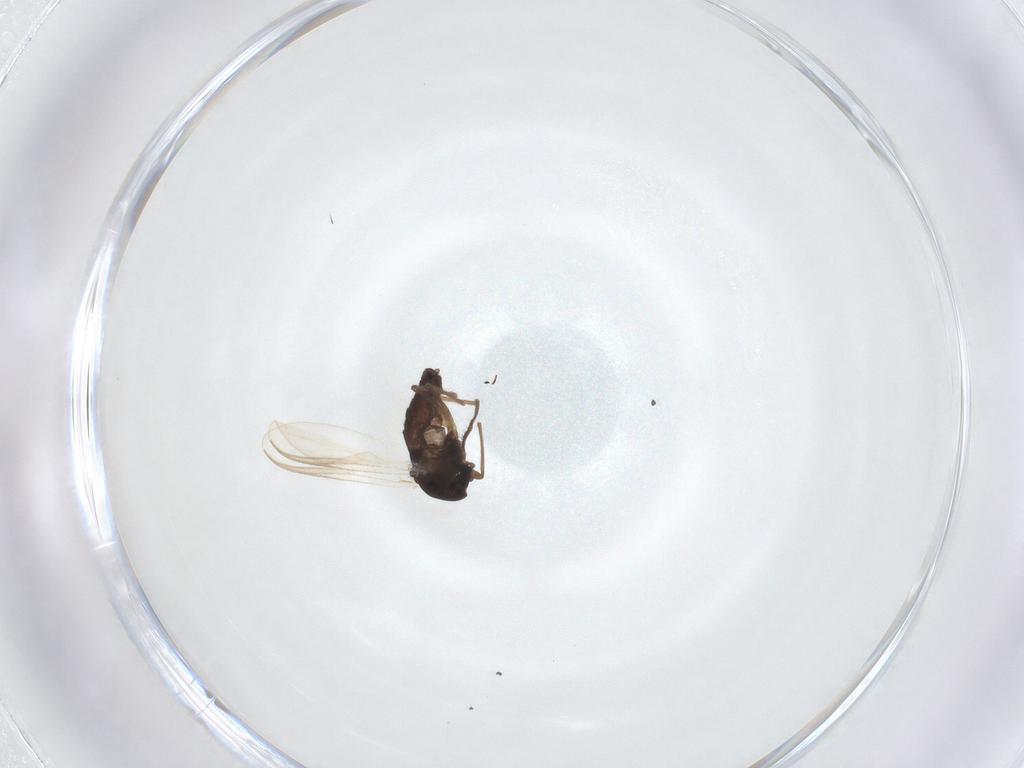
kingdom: Animalia
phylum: Arthropoda
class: Insecta
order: Diptera
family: Chironomidae
